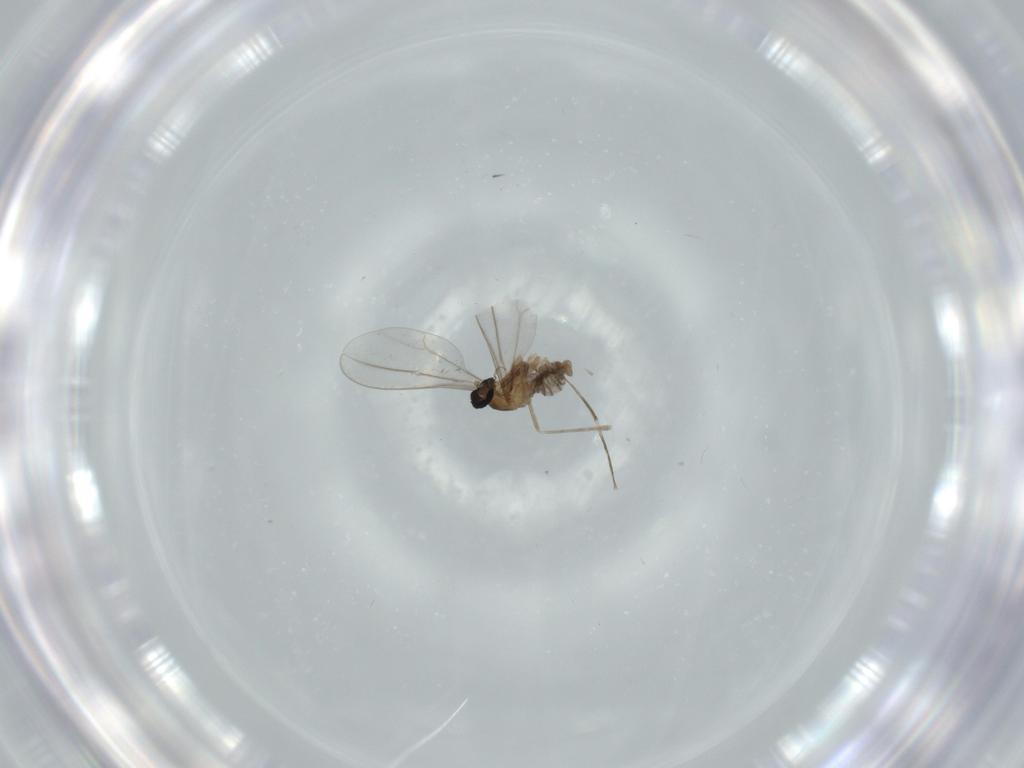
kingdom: Animalia
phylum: Arthropoda
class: Insecta
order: Diptera
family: Cecidomyiidae
